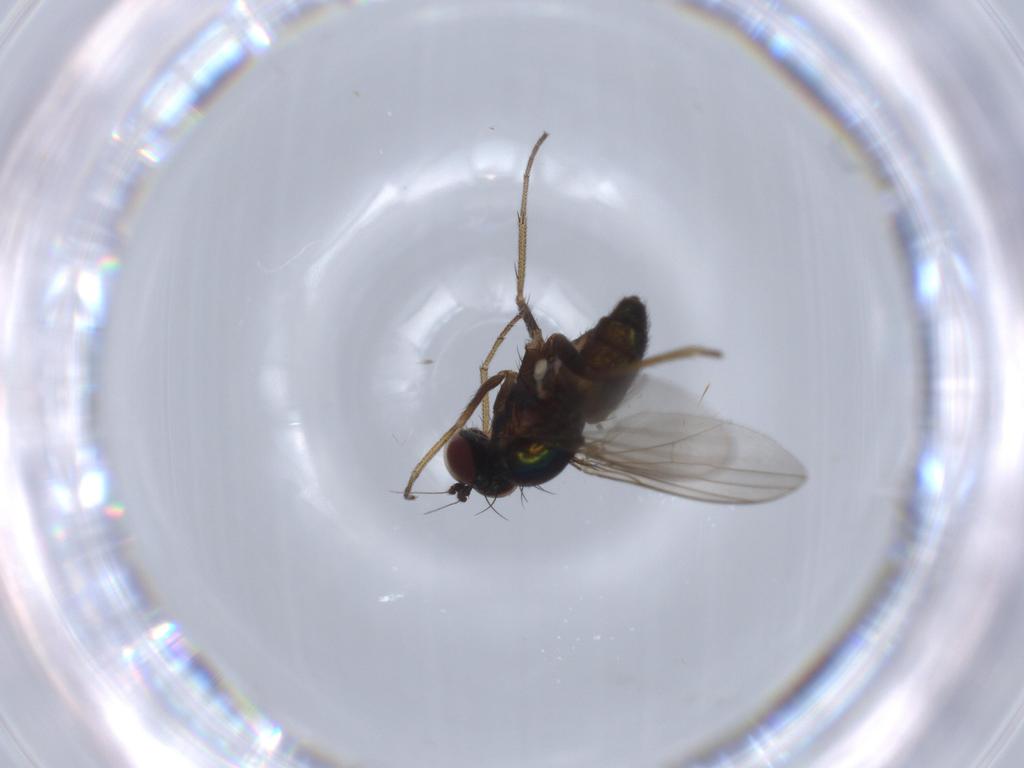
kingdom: Animalia
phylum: Arthropoda
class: Insecta
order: Diptera
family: Dolichopodidae
